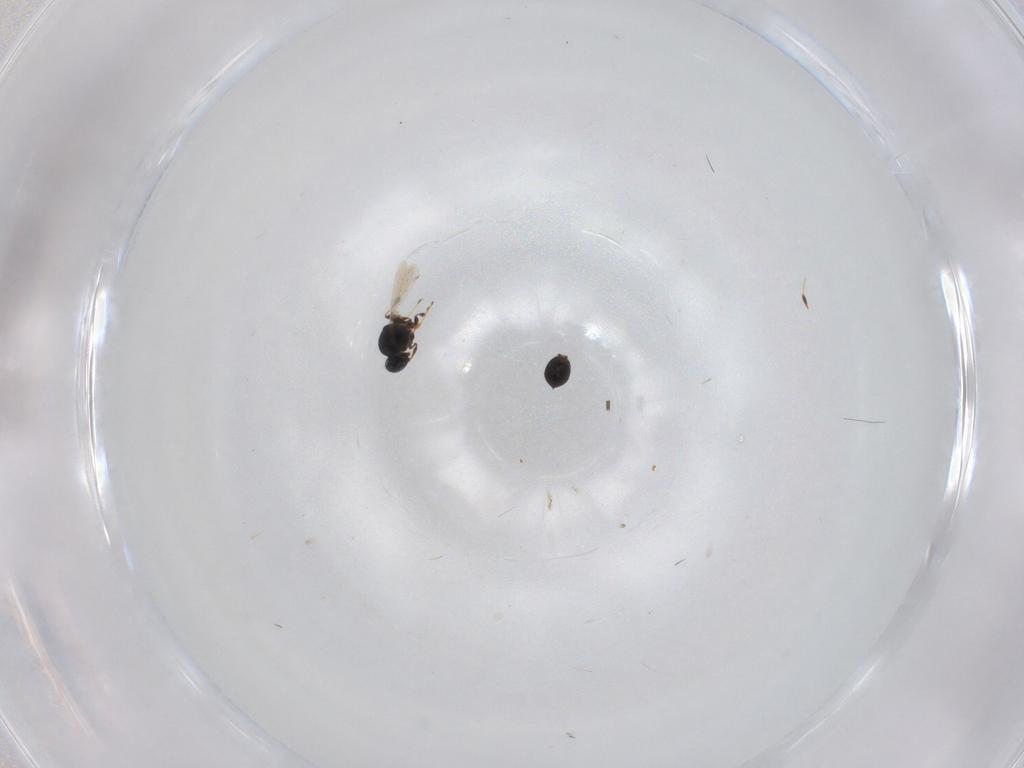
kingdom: Animalia
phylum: Arthropoda
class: Insecta
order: Hymenoptera
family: Platygastridae
